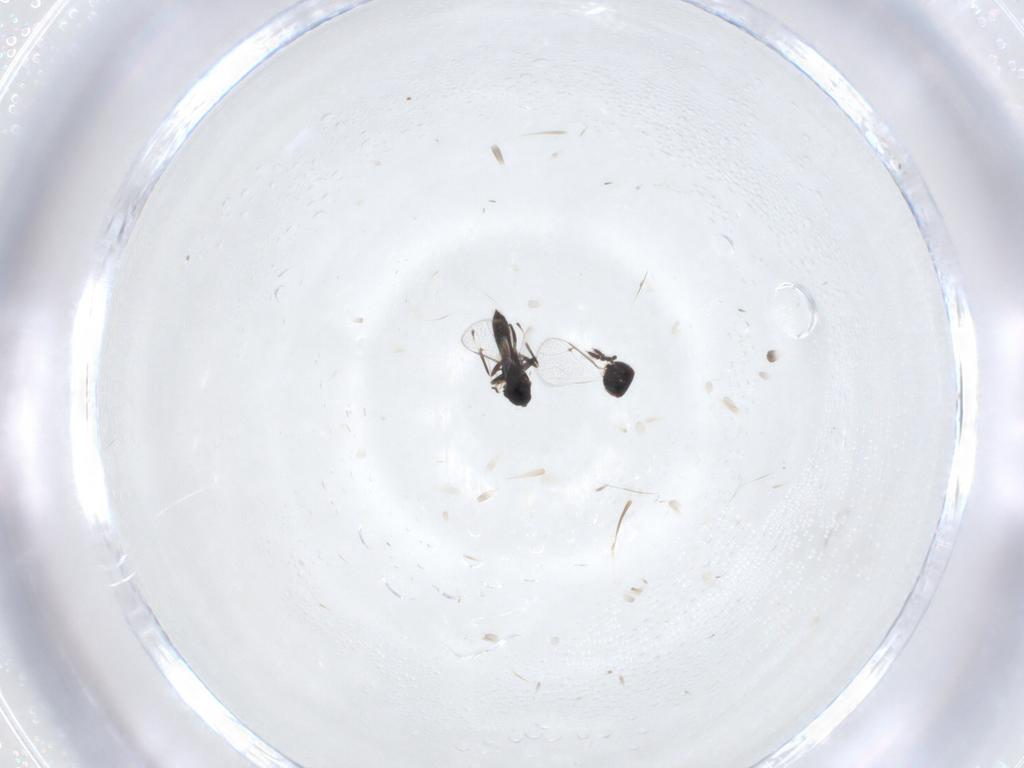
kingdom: Animalia
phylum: Arthropoda
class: Insecta
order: Hymenoptera
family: Eulophidae
